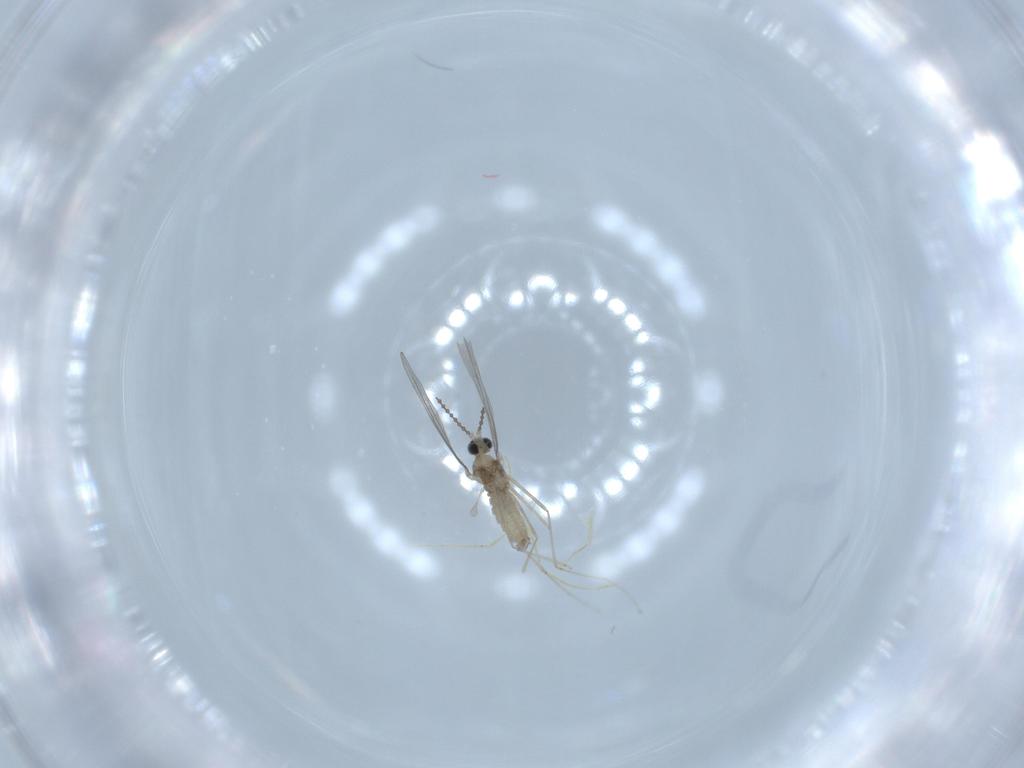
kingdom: Animalia
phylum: Arthropoda
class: Insecta
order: Diptera
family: Cecidomyiidae
